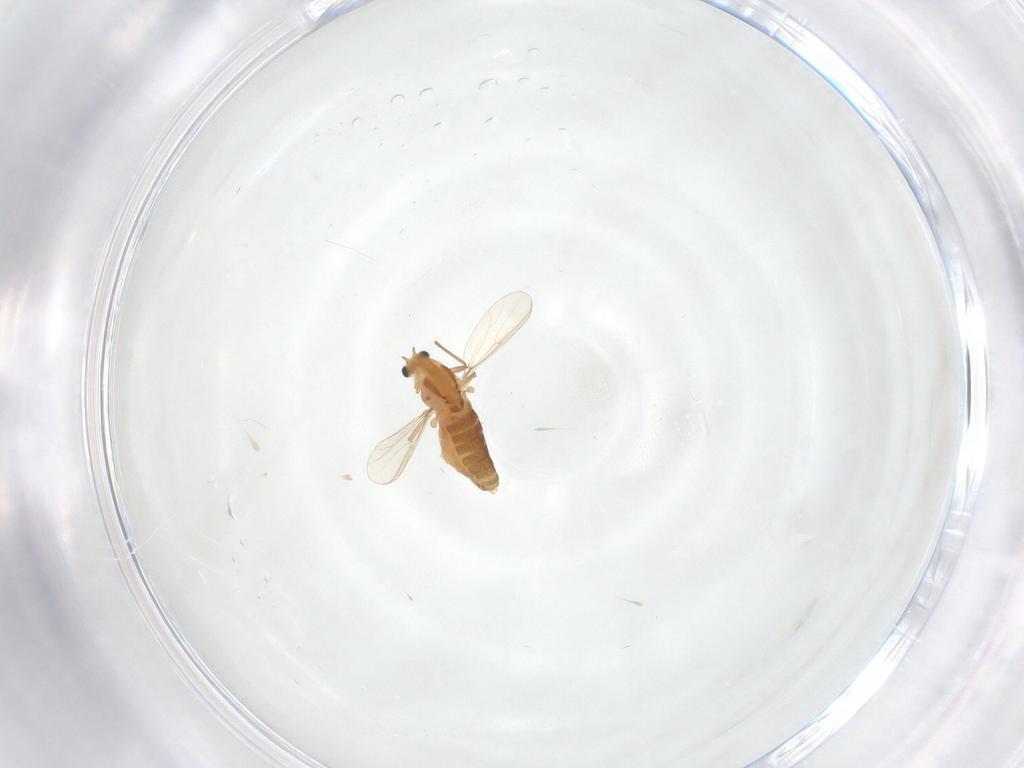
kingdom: Animalia
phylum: Arthropoda
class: Insecta
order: Diptera
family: Chironomidae
